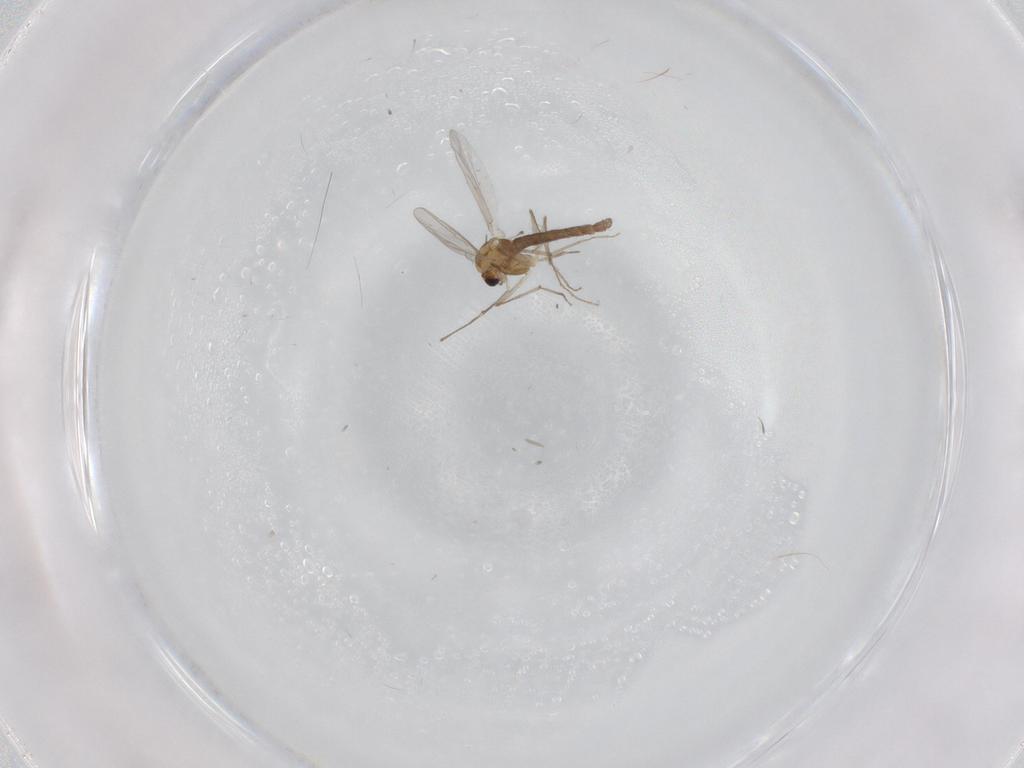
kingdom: Animalia
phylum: Arthropoda
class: Insecta
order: Diptera
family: Chironomidae
